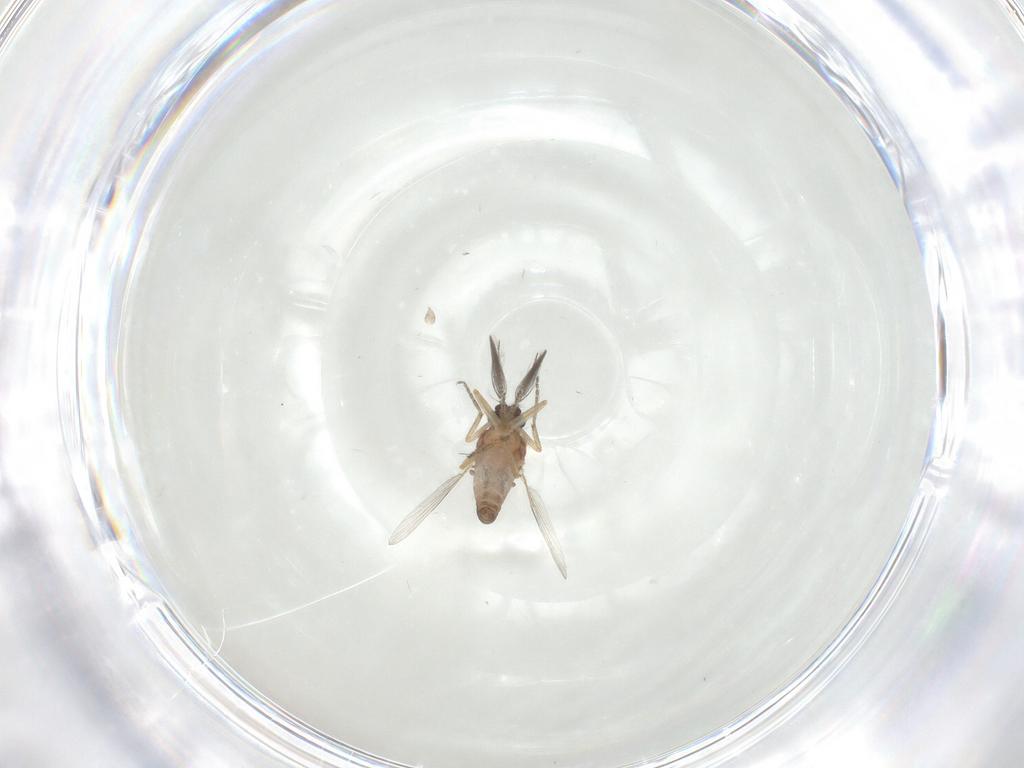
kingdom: Animalia
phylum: Arthropoda
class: Insecta
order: Diptera
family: Ceratopogonidae
